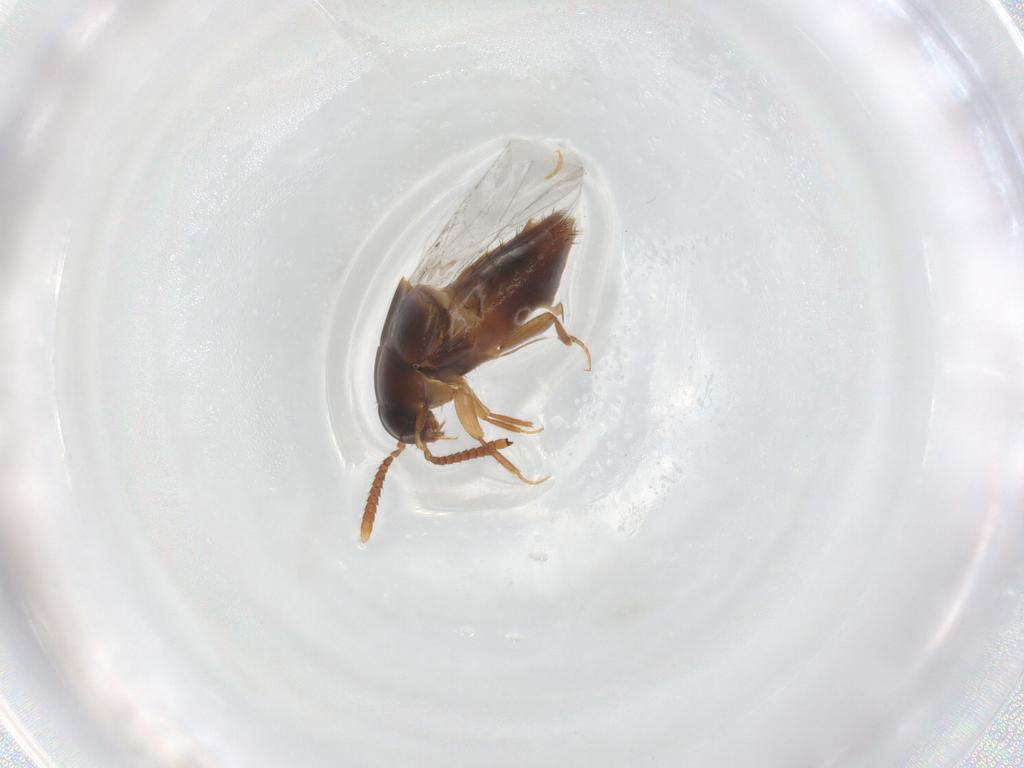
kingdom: Animalia
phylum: Arthropoda
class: Insecta
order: Coleoptera
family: Staphylinidae
